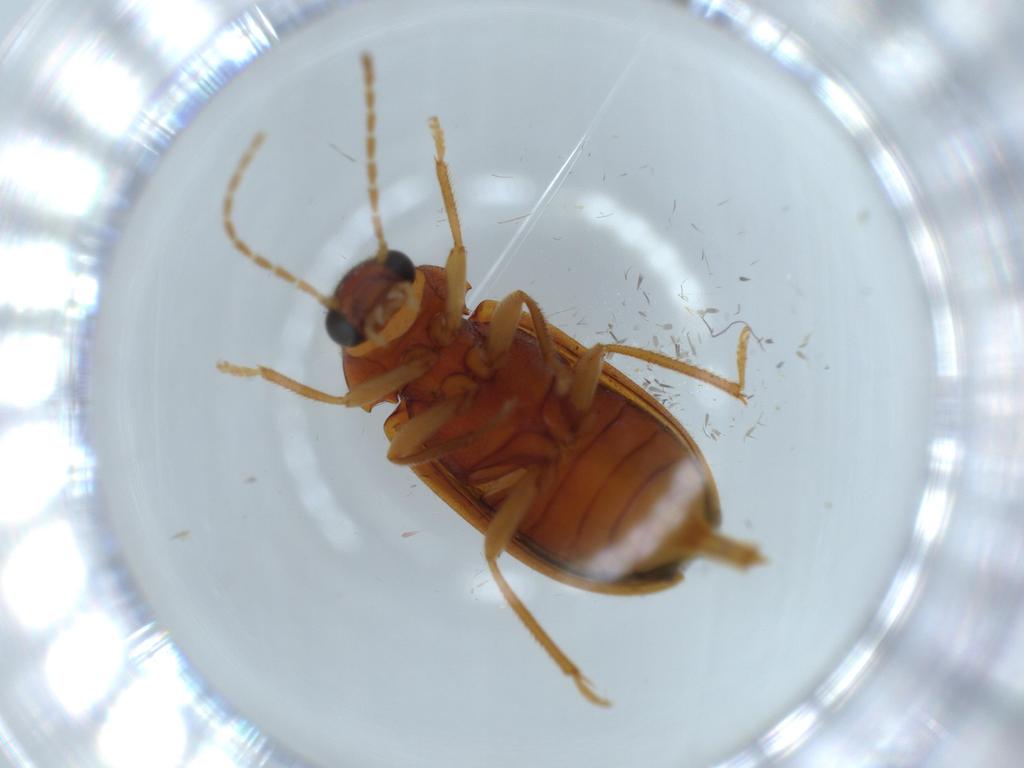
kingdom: Animalia
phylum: Arthropoda
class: Insecta
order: Coleoptera
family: Ptilodactylidae
